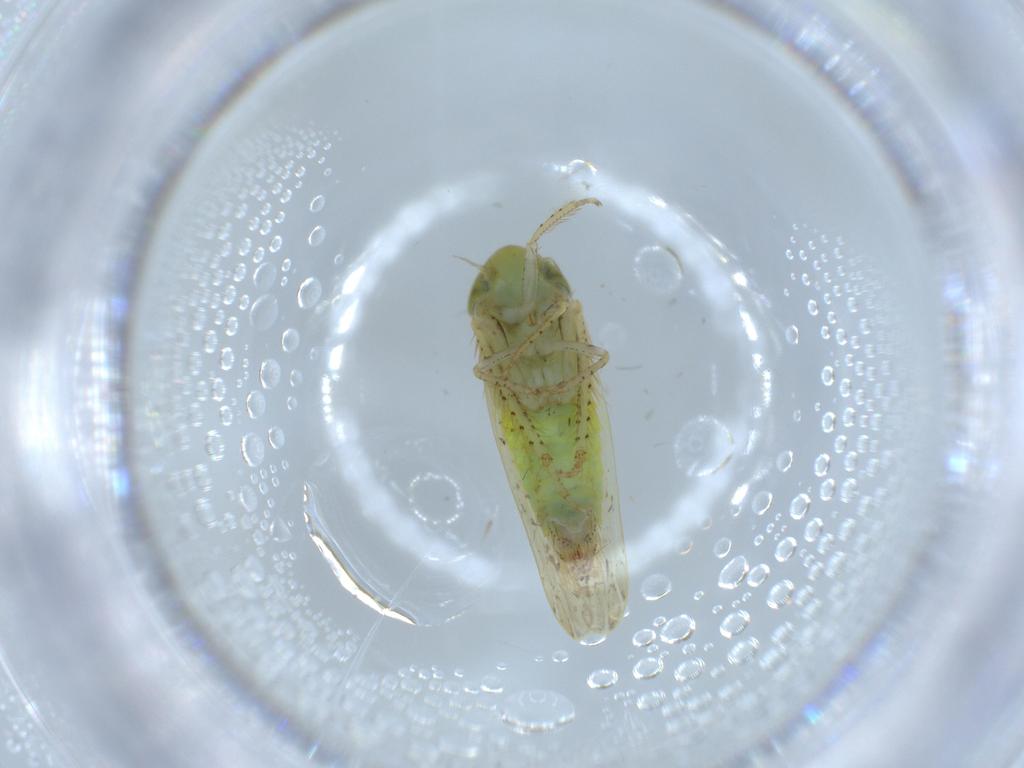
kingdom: Animalia
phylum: Arthropoda
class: Insecta
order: Hemiptera
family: Cicadellidae
